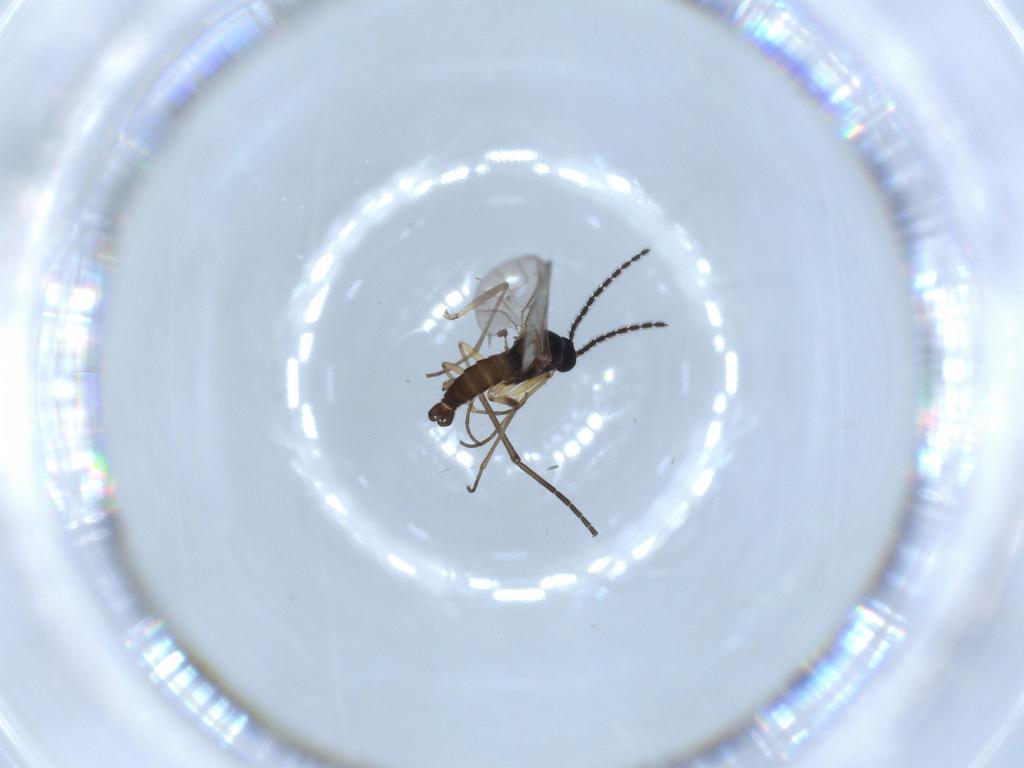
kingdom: Animalia
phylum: Arthropoda
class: Insecta
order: Diptera
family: Sciaridae
